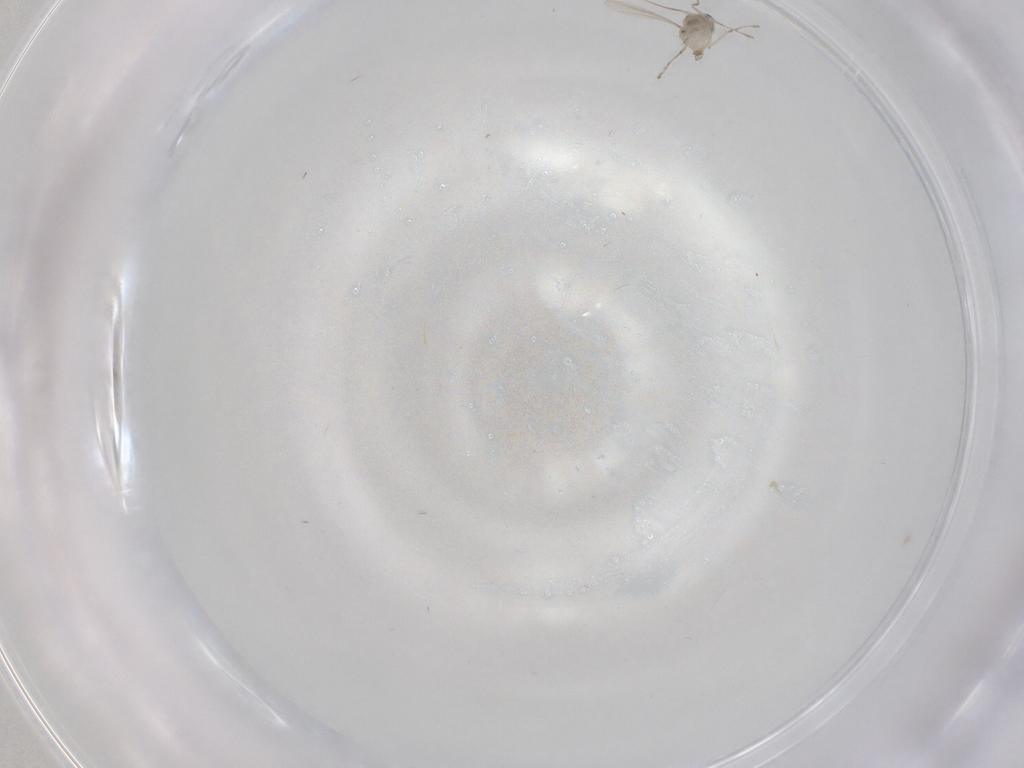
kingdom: Animalia
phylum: Arthropoda
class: Insecta
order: Diptera
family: Cecidomyiidae
